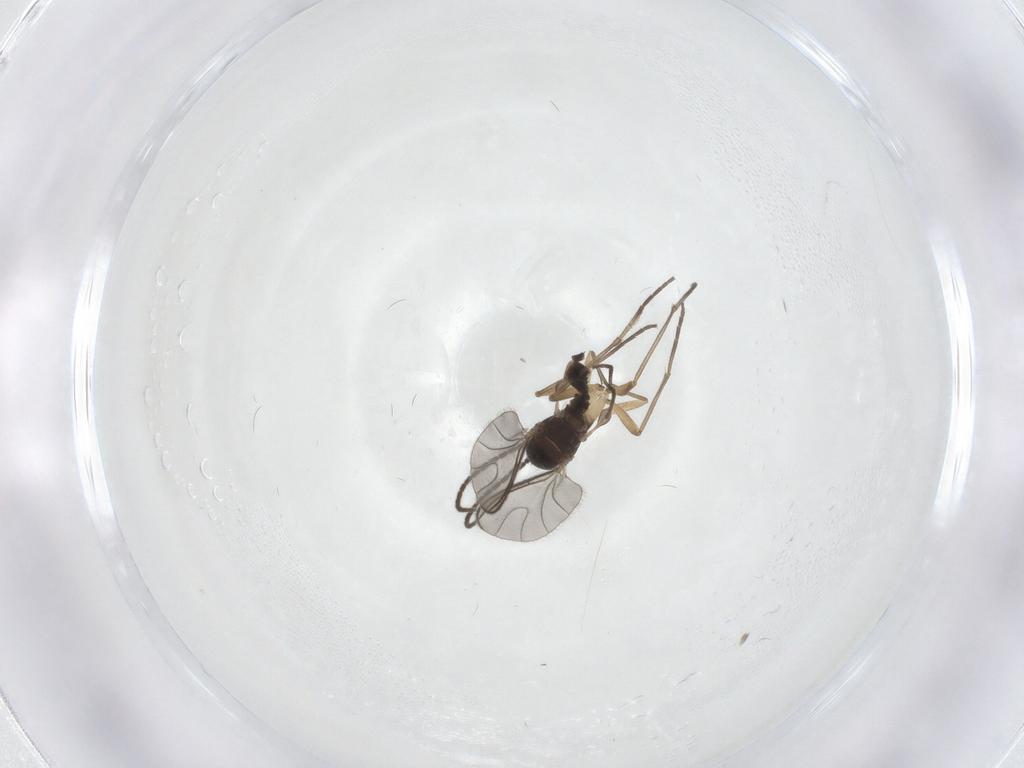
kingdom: Animalia
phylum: Arthropoda
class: Insecta
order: Diptera
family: Sciaridae
